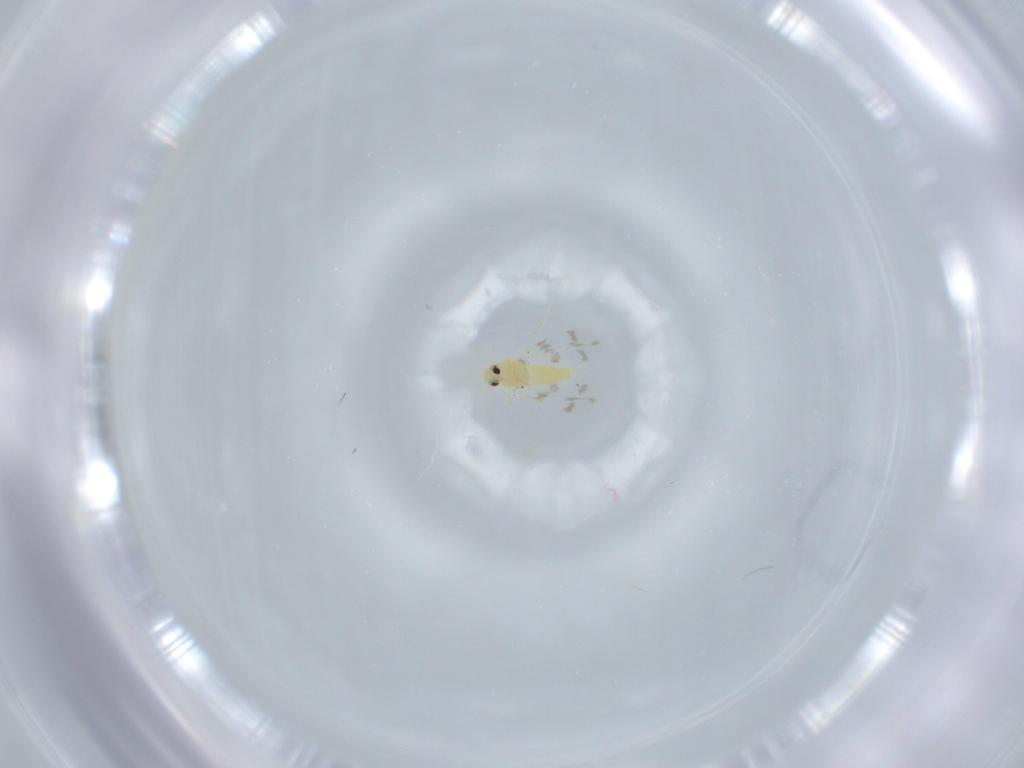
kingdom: Animalia
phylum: Arthropoda
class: Insecta
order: Hemiptera
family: Aleyrodidae
